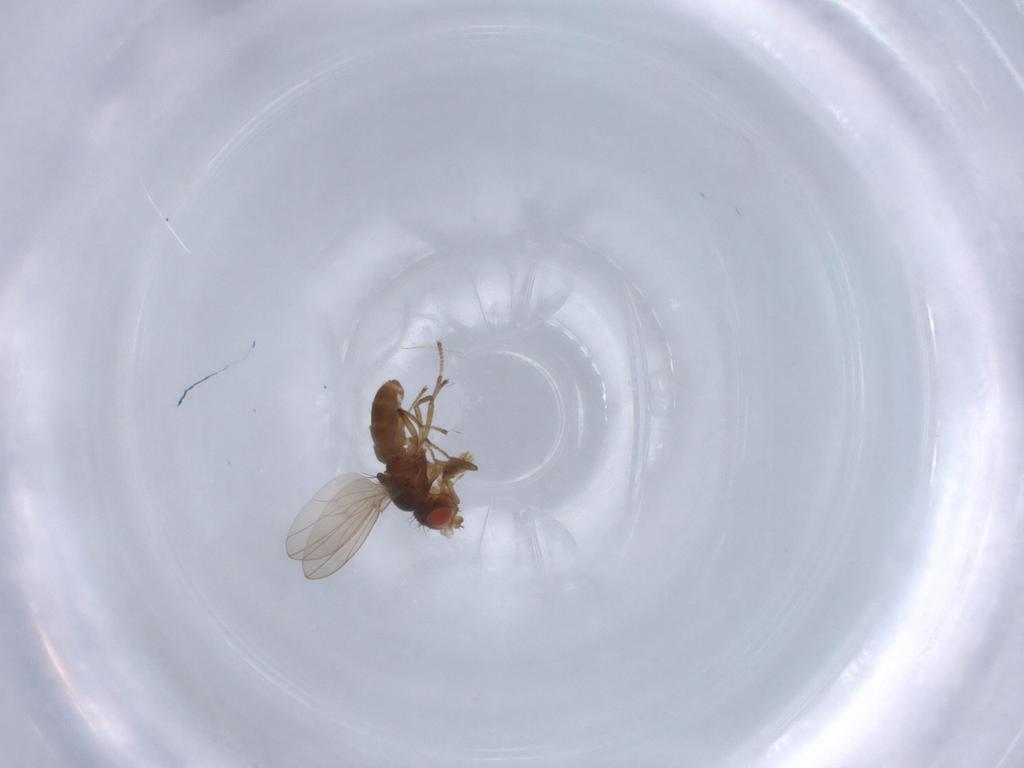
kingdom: Animalia
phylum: Arthropoda
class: Insecta
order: Diptera
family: Ephydridae
